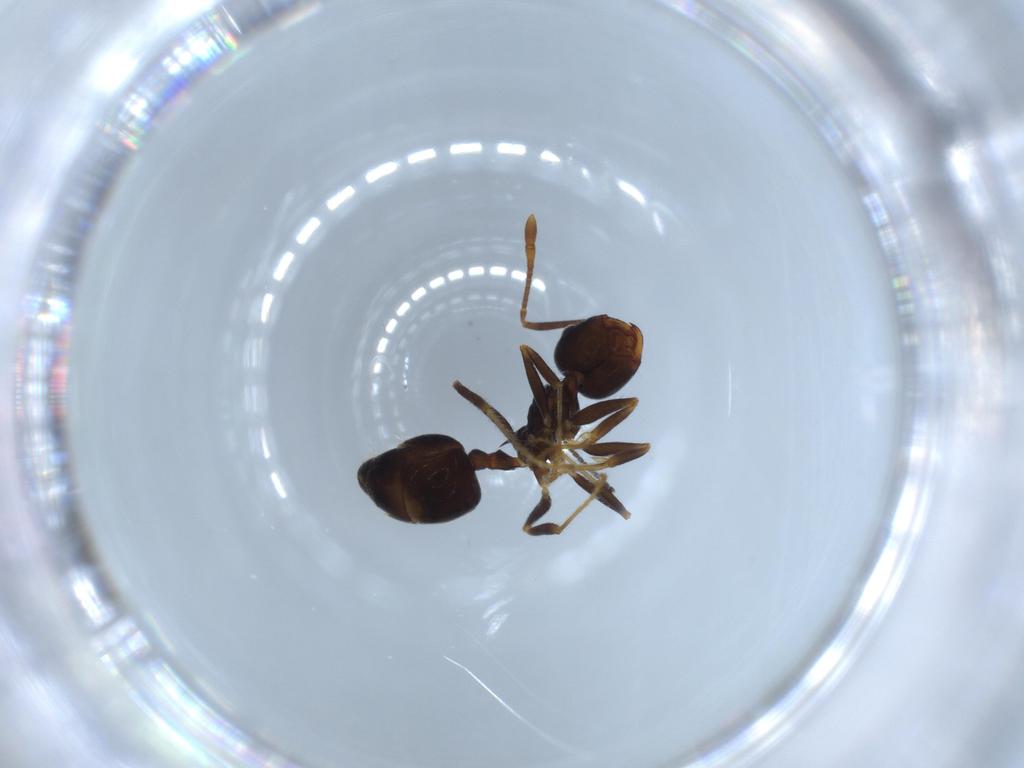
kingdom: Animalia
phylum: Arthropoda
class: Insecta
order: Hymenoptera
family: Formicidae
